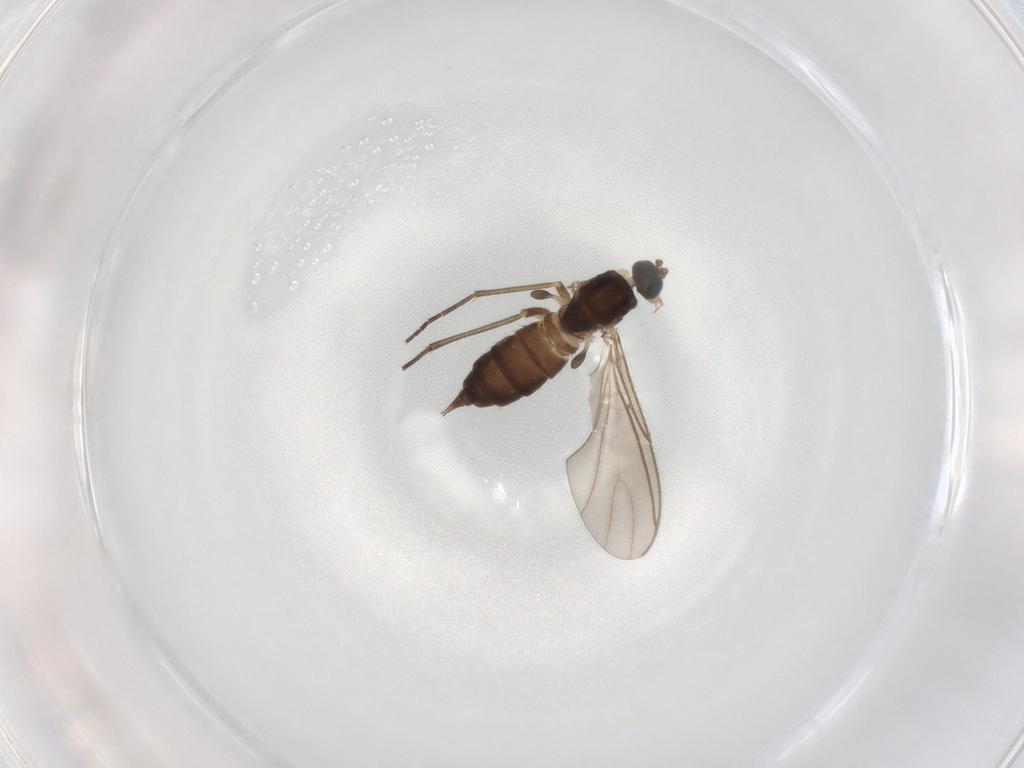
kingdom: Animalia
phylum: Arthropoda
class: Insecta
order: Diptera
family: Sciaridae
